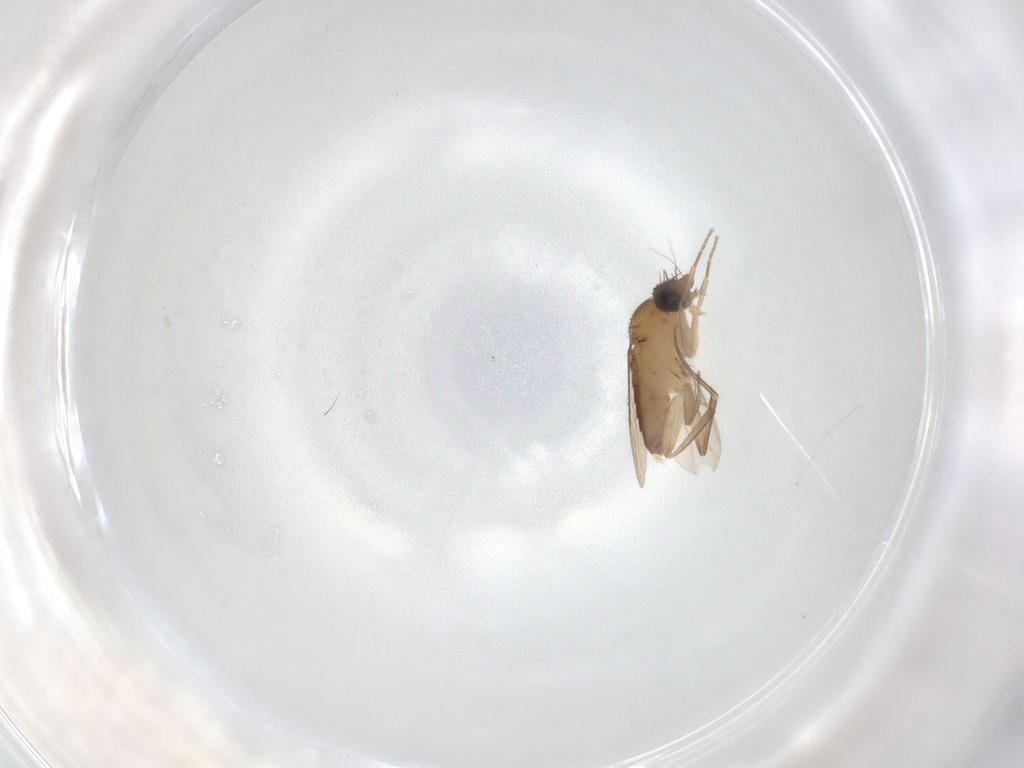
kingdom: Animalia
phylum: Arthropoda
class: Insecta
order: Diptera
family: Phoridae
